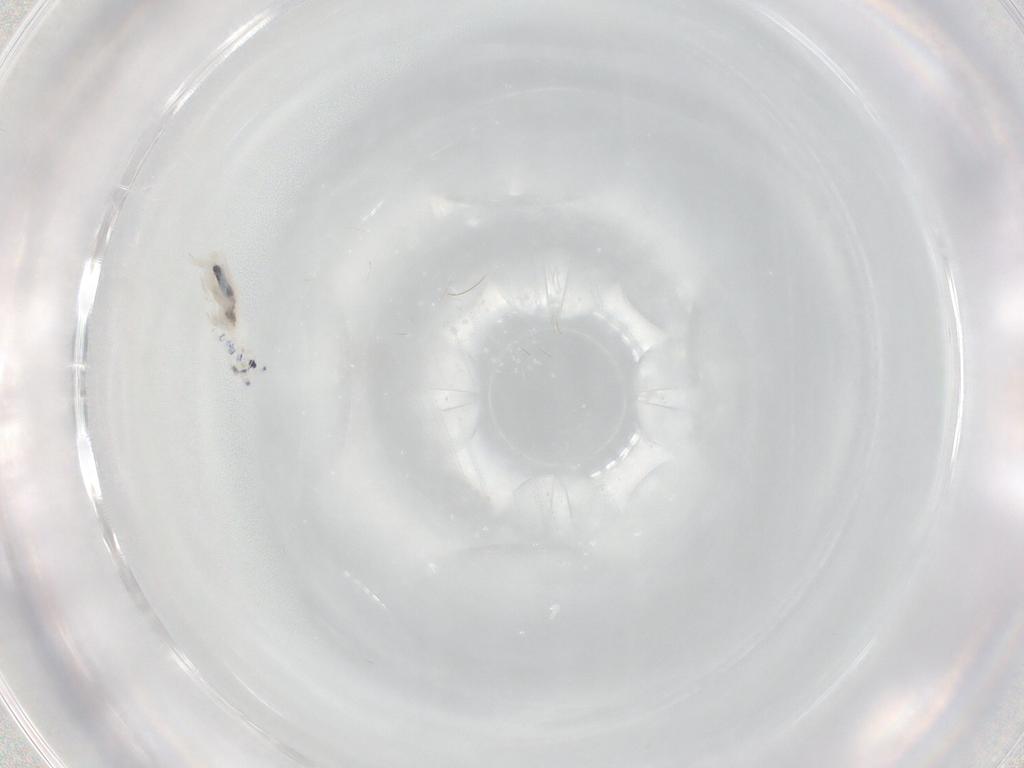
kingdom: Animalia
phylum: Arthropoda
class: Collembola
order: Entomobryomorpha
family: Entomobryidae
